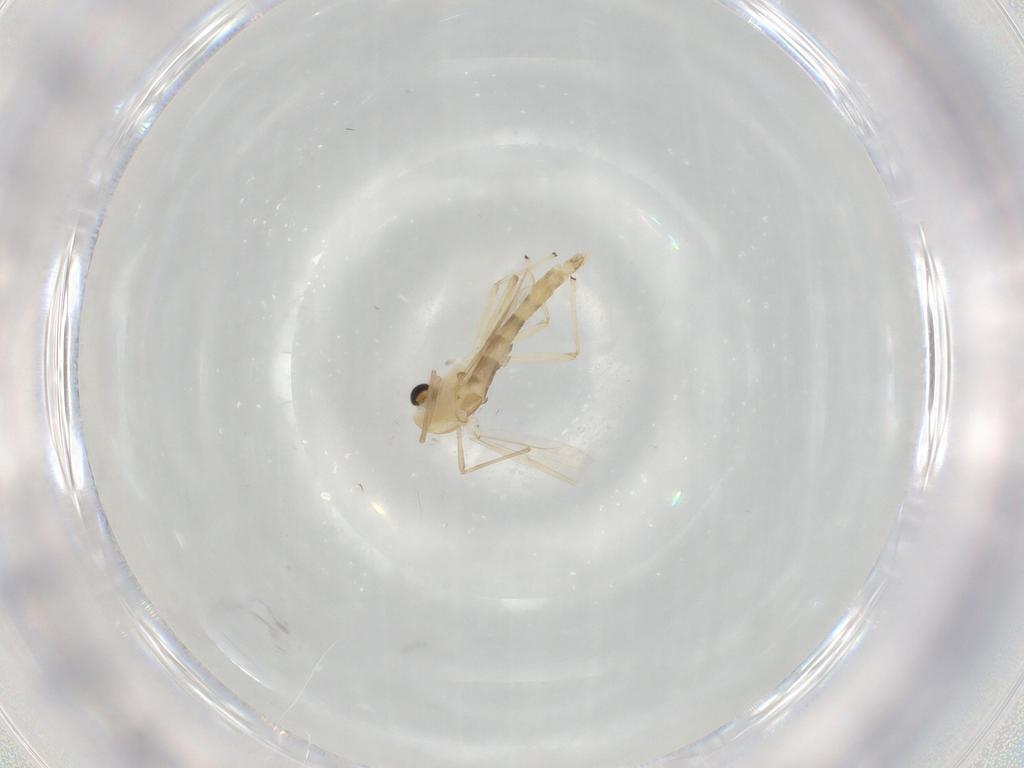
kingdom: Animalia
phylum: Arthropoda
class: Insecta
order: Diptera
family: Chironomidae
